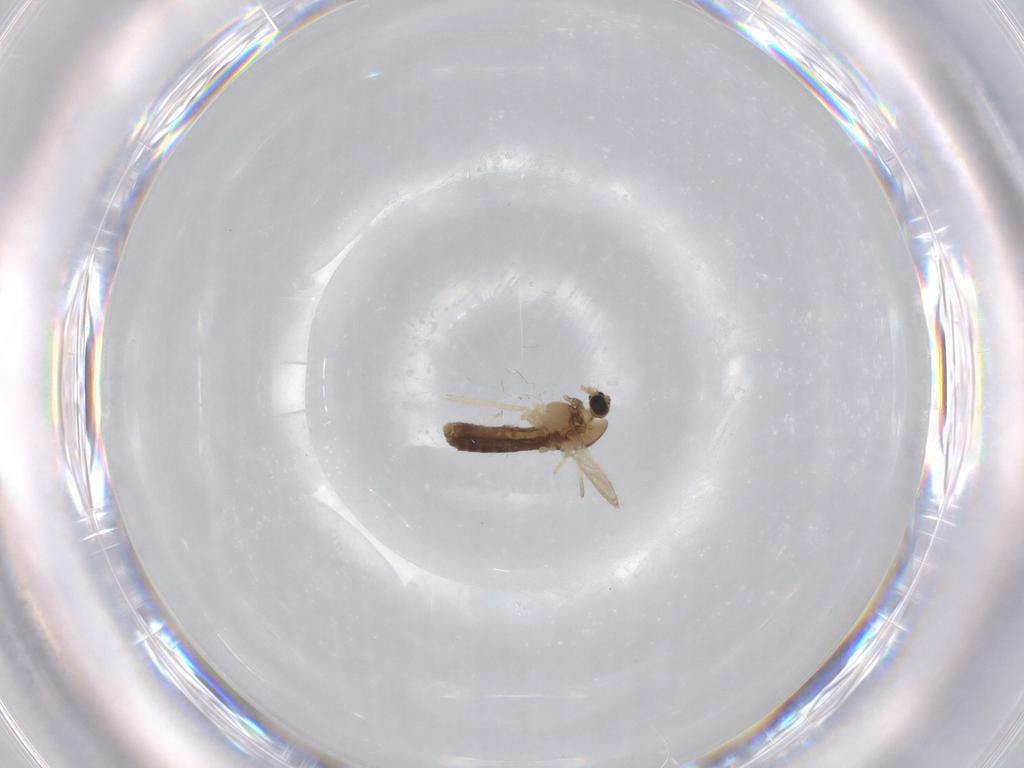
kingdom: Animalia
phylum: Arthropoda
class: Insecta
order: Diptera
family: Chironomidae
